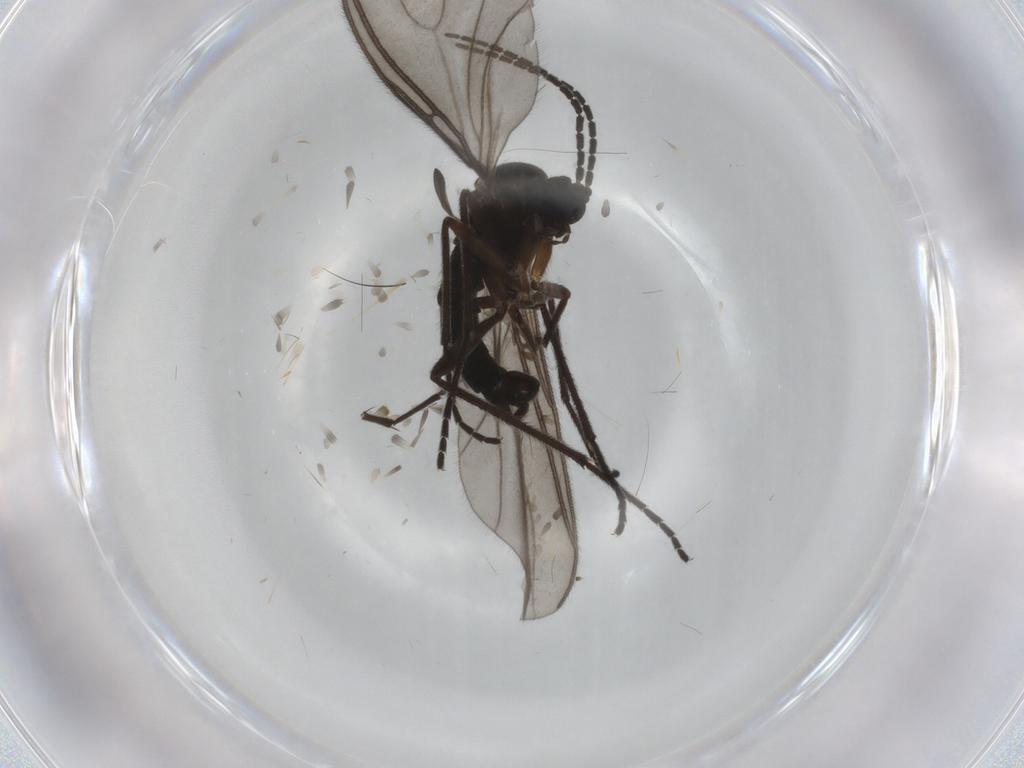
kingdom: Animalia
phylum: Arthropoda
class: Insecta
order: Diptera
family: Sciaridae
